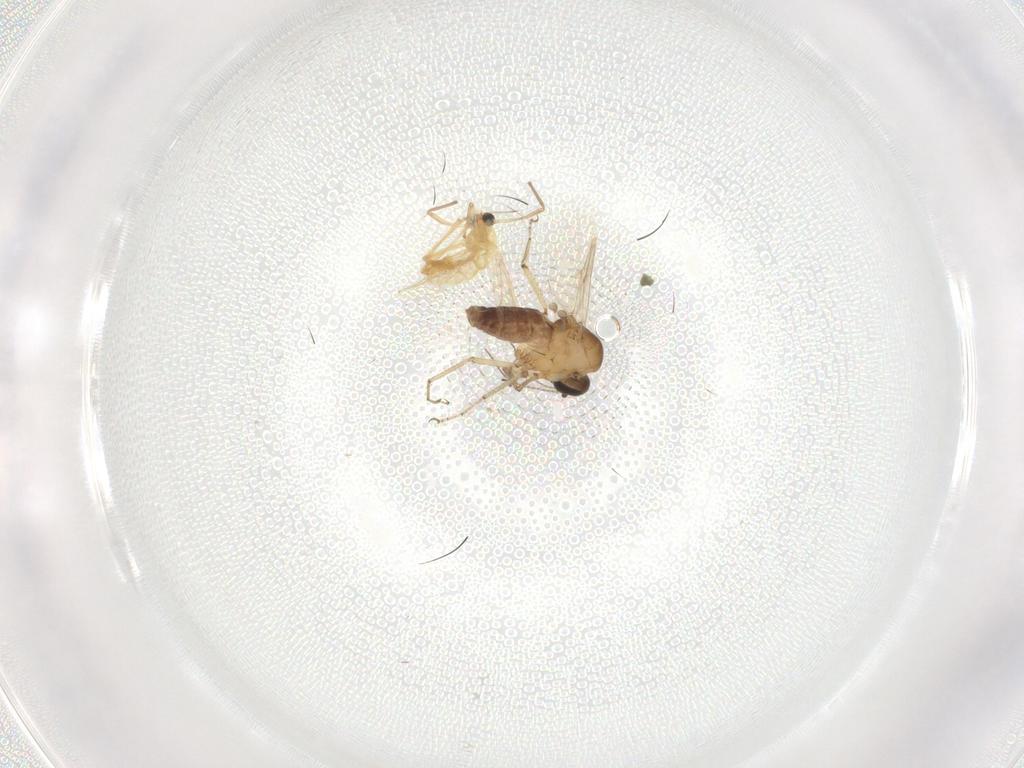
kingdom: Animalia
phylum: Arthropoda
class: Insecta
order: Diptera
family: Chironomidae
